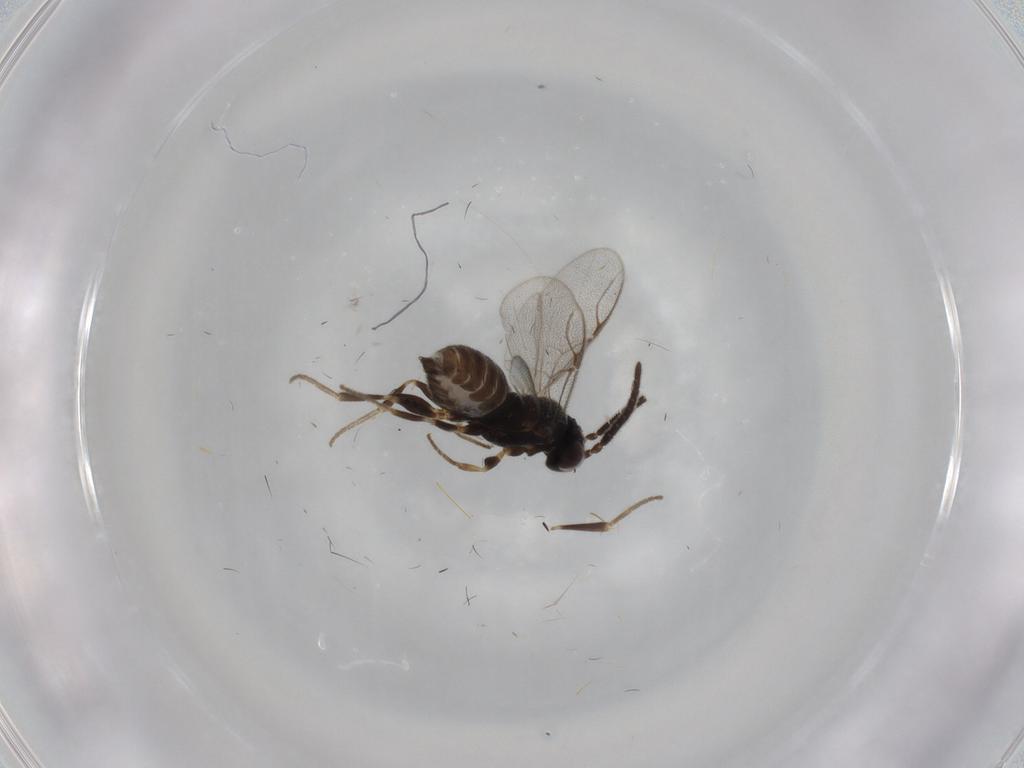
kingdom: Animalia
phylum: Arthropoda
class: Insecta
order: Hymenoptera
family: Dryinidae
